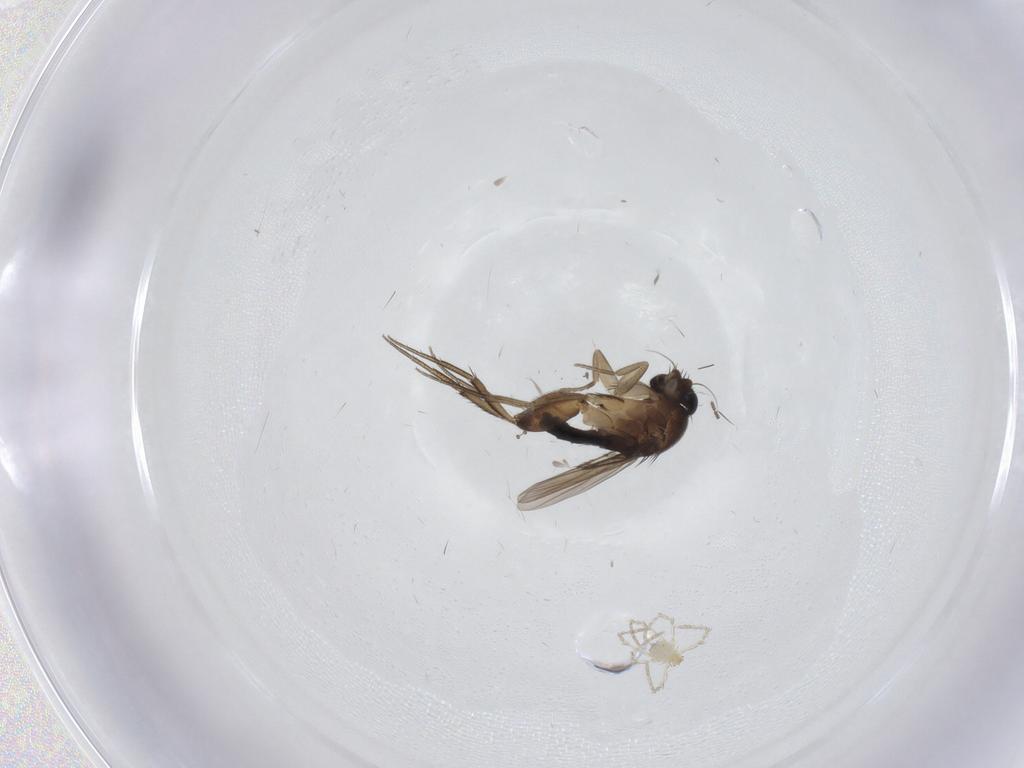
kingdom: Animalia
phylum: Arthropoda
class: Insecta
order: Diptera
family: Phoridae
